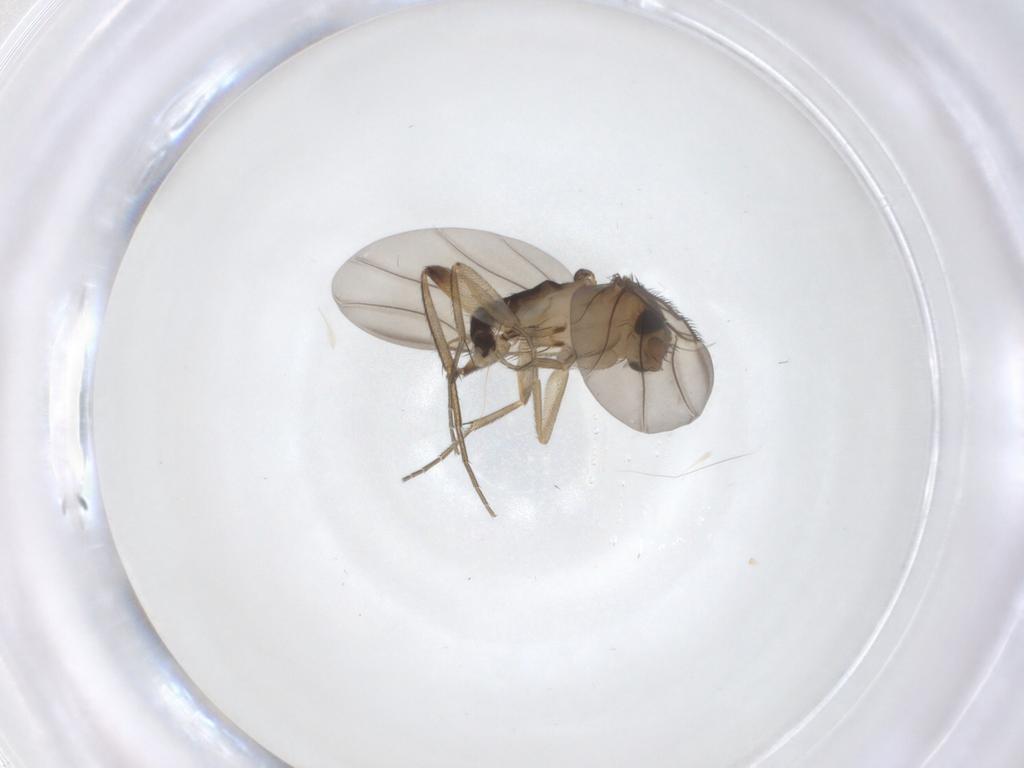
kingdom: Animalia
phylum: Arthropoda
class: Insecta
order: Diptera
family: Phoridae
